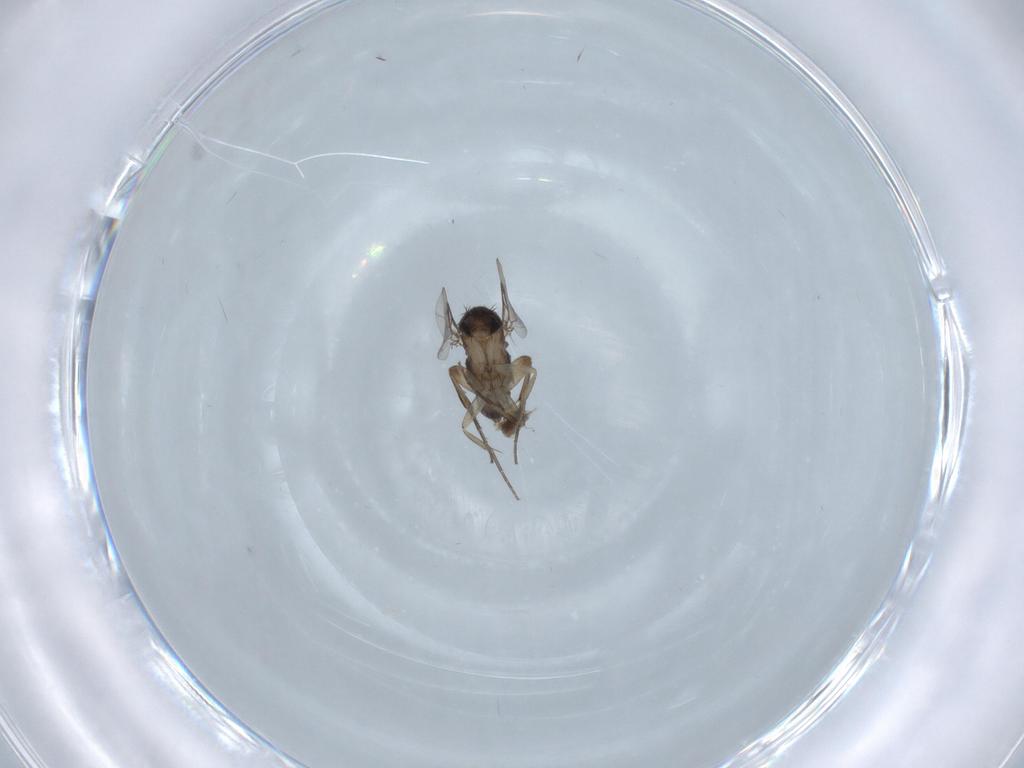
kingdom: Animalia
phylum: Arthropoda
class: Insecta
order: Diptera
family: Phoridae
